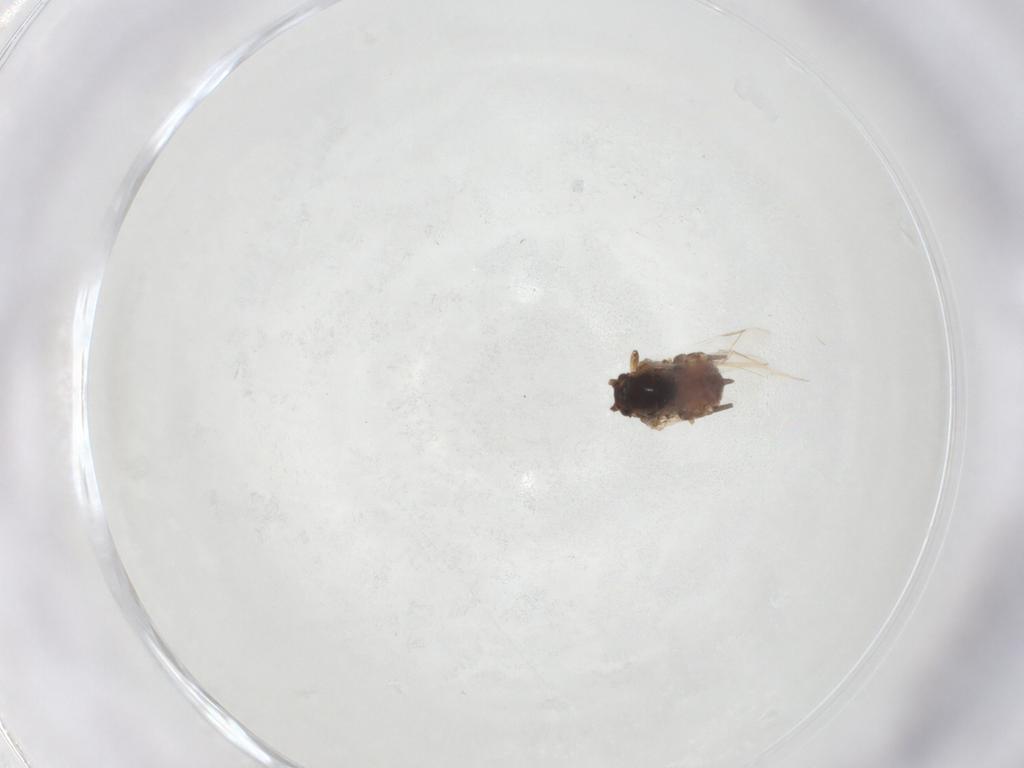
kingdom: Animalia
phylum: Arthropoda
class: Insecta
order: Hemiptera
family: Aphididae
